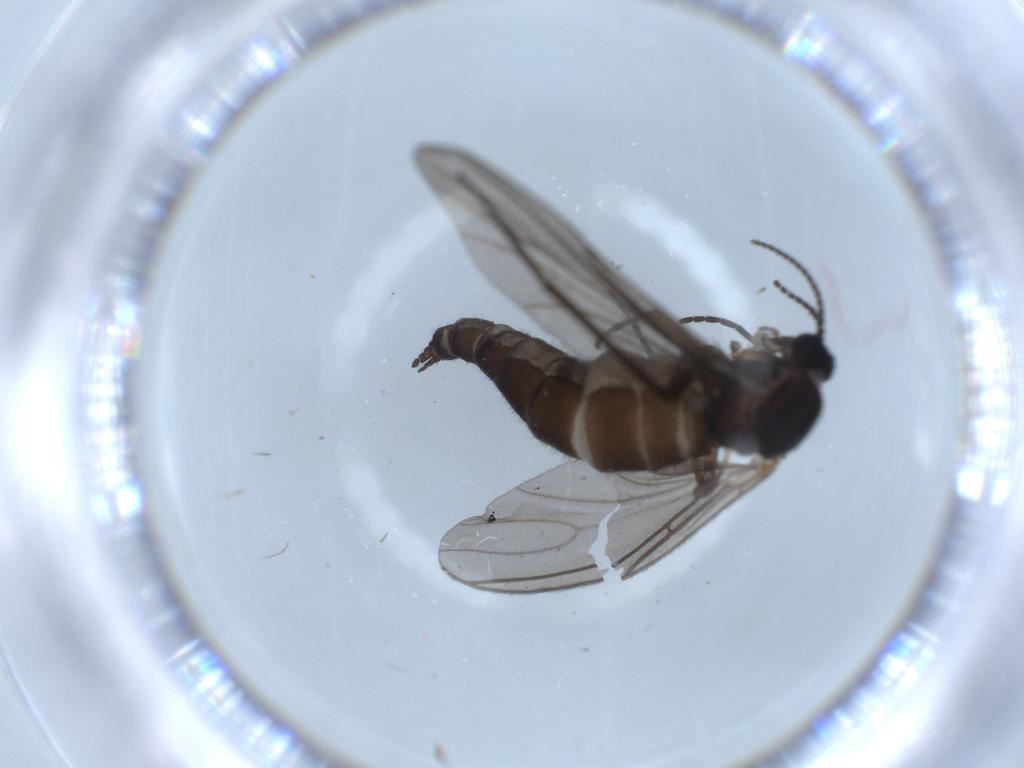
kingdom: Animalia
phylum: Arthropoda
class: Insecta
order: Diptera
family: Sciaridae
